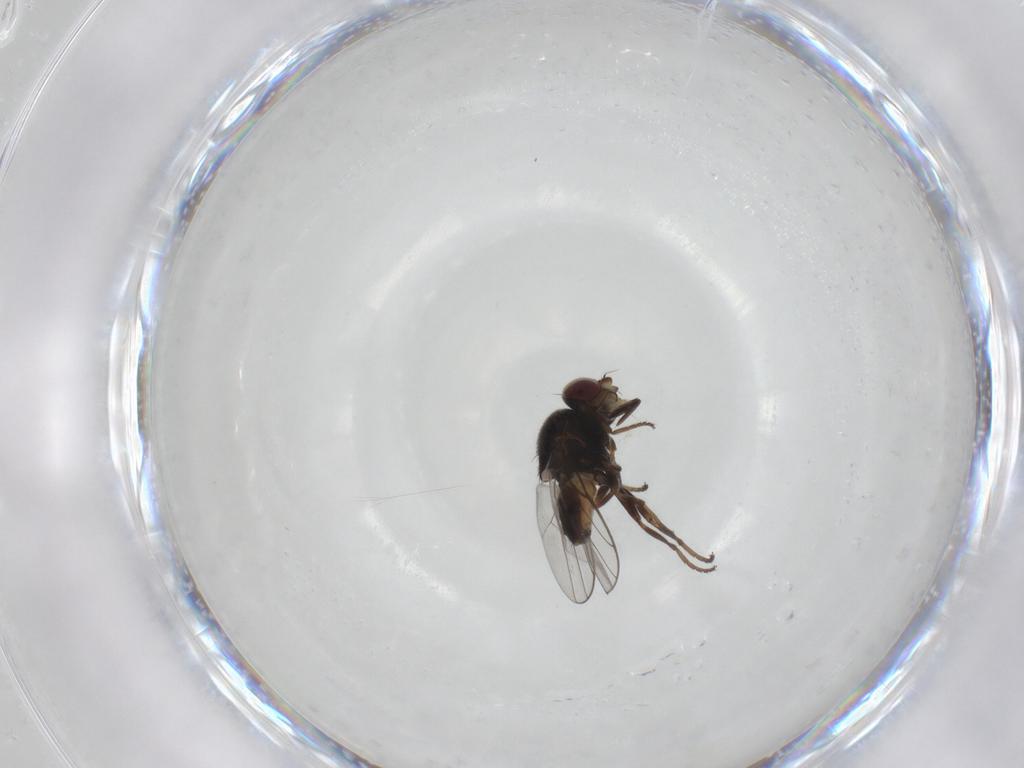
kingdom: Animalia
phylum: Arthropoda
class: Insecta
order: Diptera
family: Chloropidae
